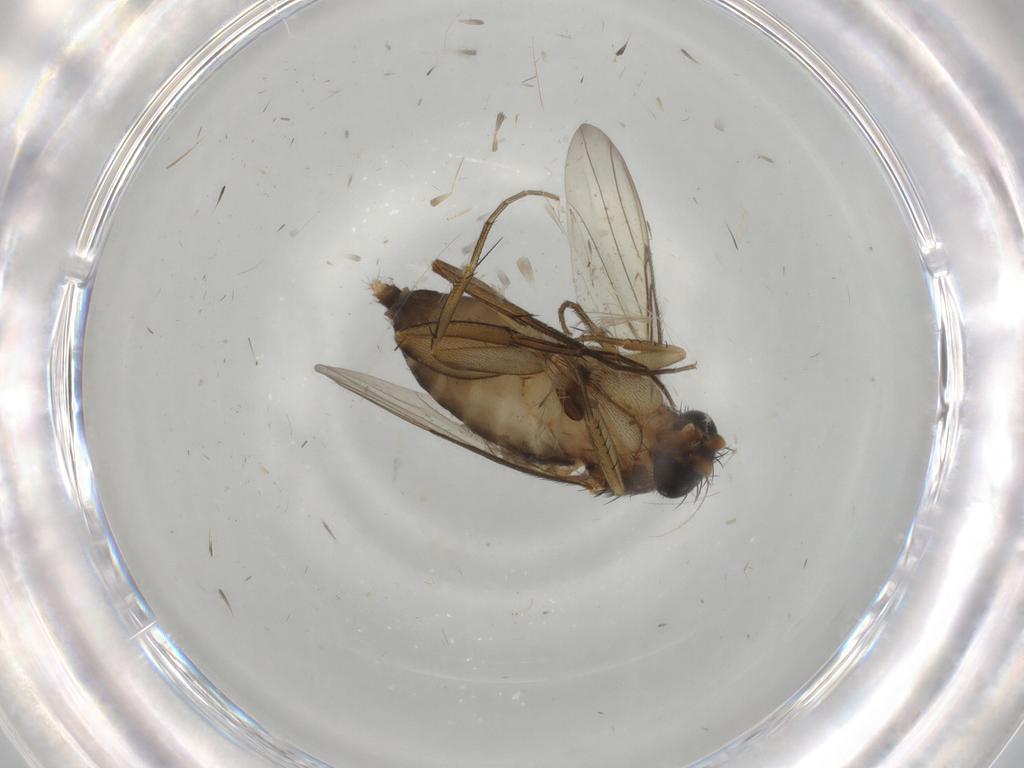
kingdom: Animalia
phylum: Arthropoda
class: Insecta
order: Diptera
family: Phoridae
